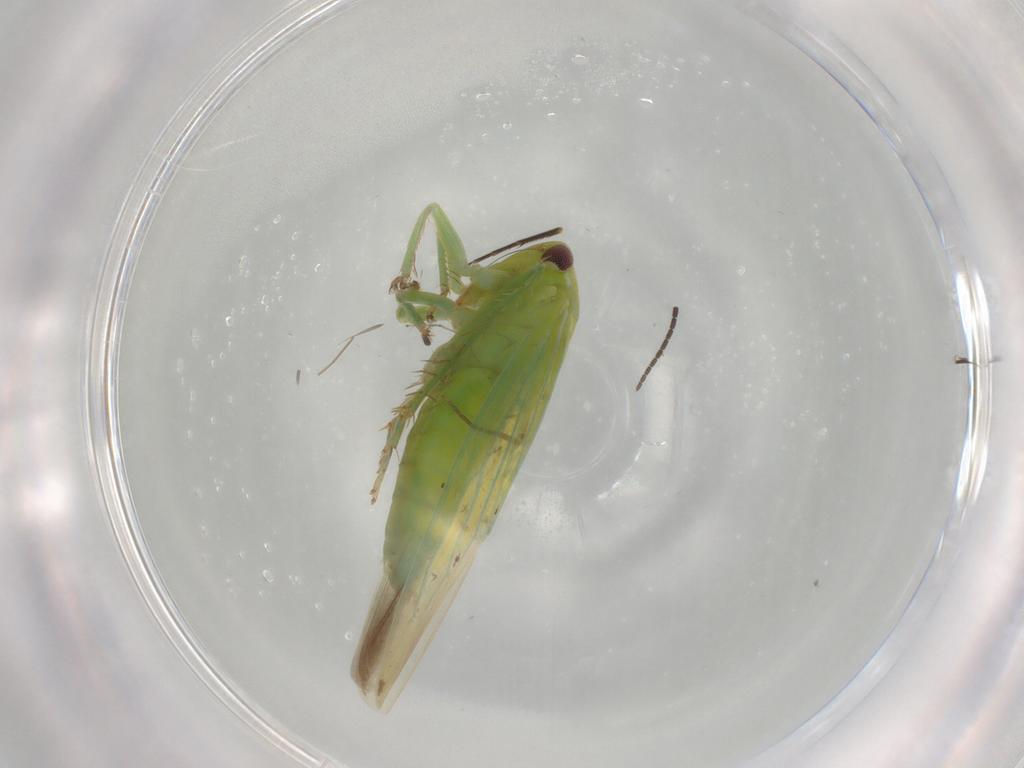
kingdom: Animalia
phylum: Arthropoda
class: Insecta
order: Hemiptera
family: Cicadellidae
